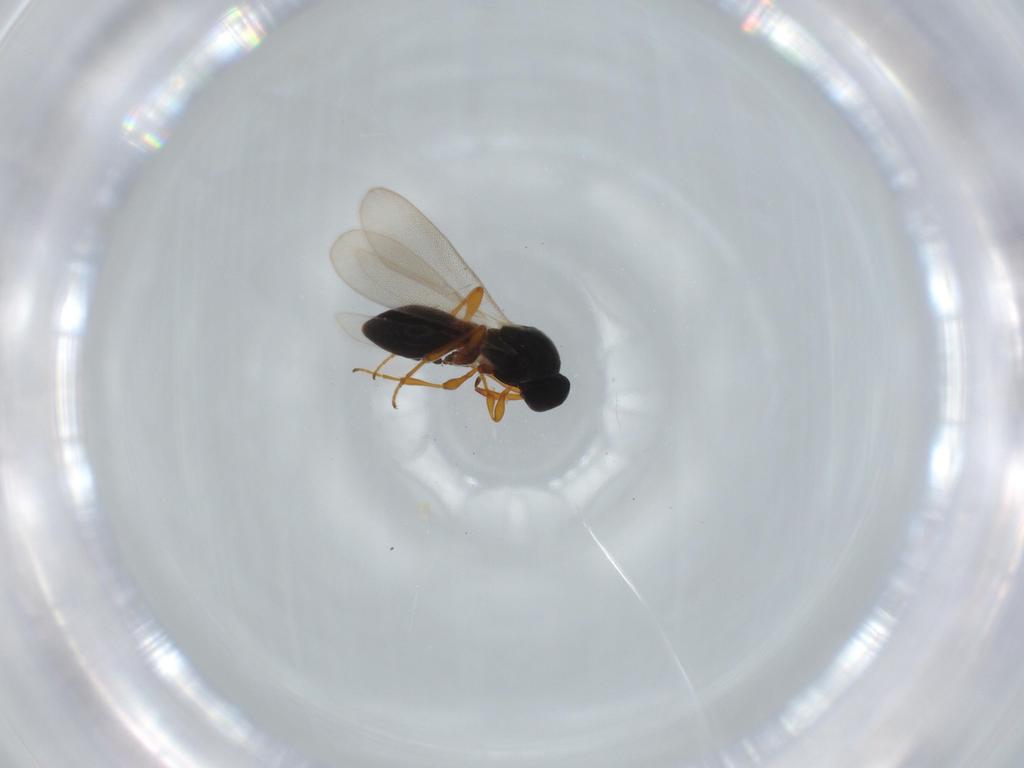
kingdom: Animalia
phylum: Arthropoda
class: Insecta
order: Hymenoptera
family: Platygastridae
